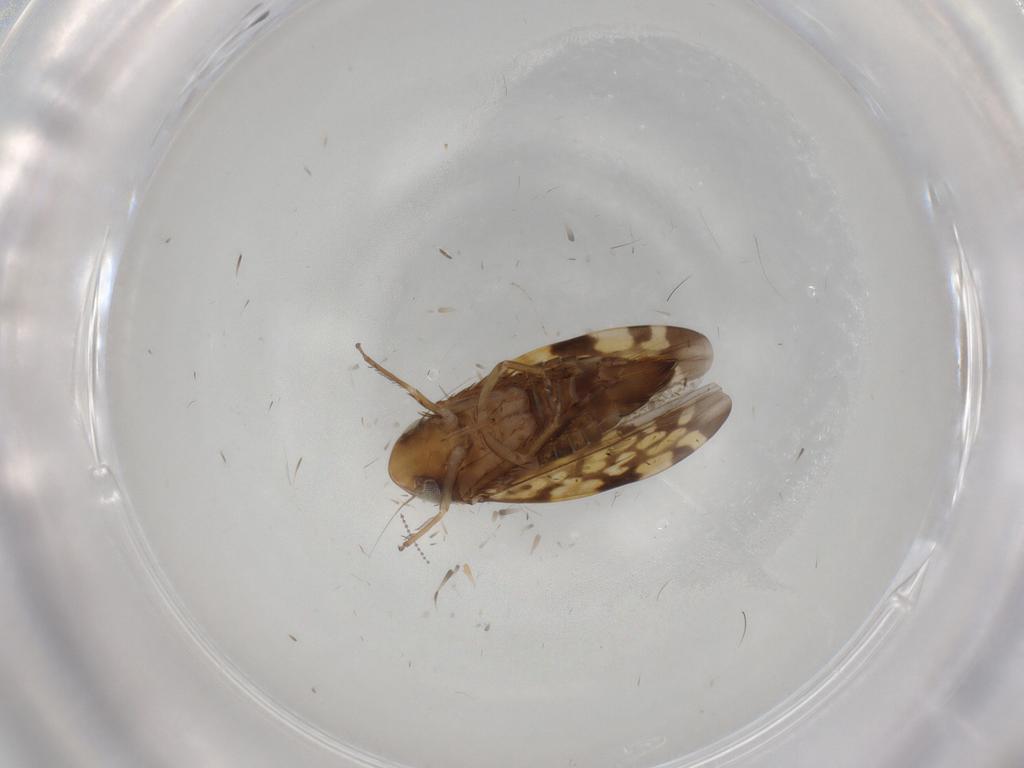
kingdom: Animalia
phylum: Arthropoda
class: Insecta
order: Hemiptera
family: Cicadellidae
